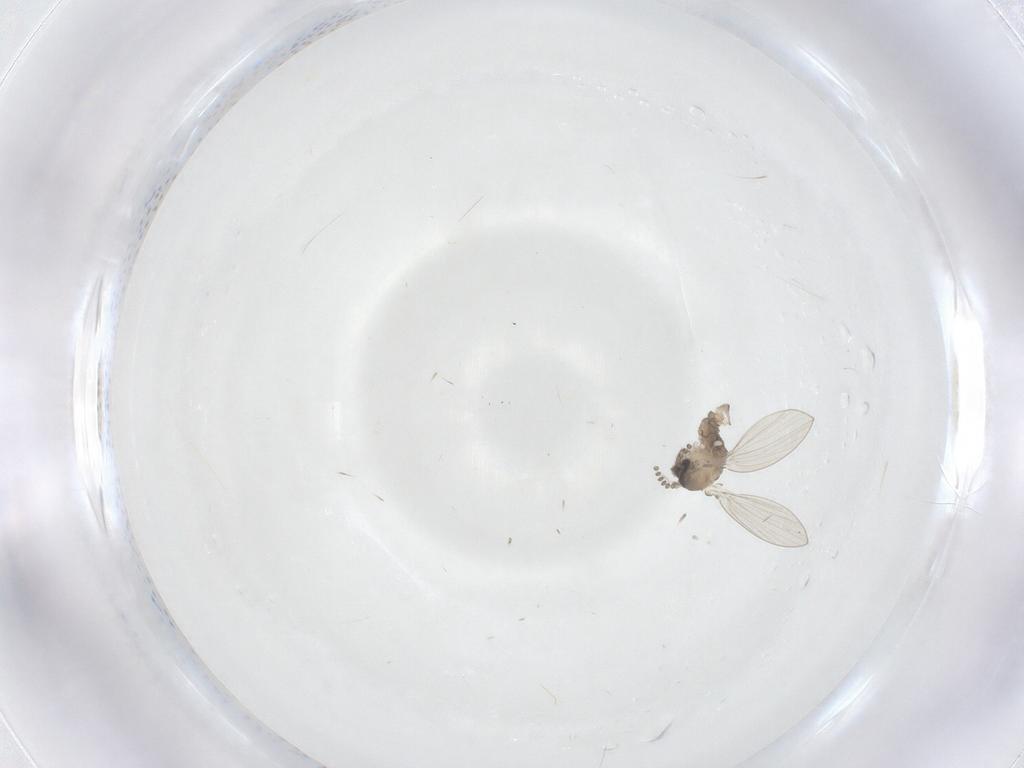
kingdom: Animalia
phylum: Arthropoda
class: Insecta
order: Diptera
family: Psychodidae
